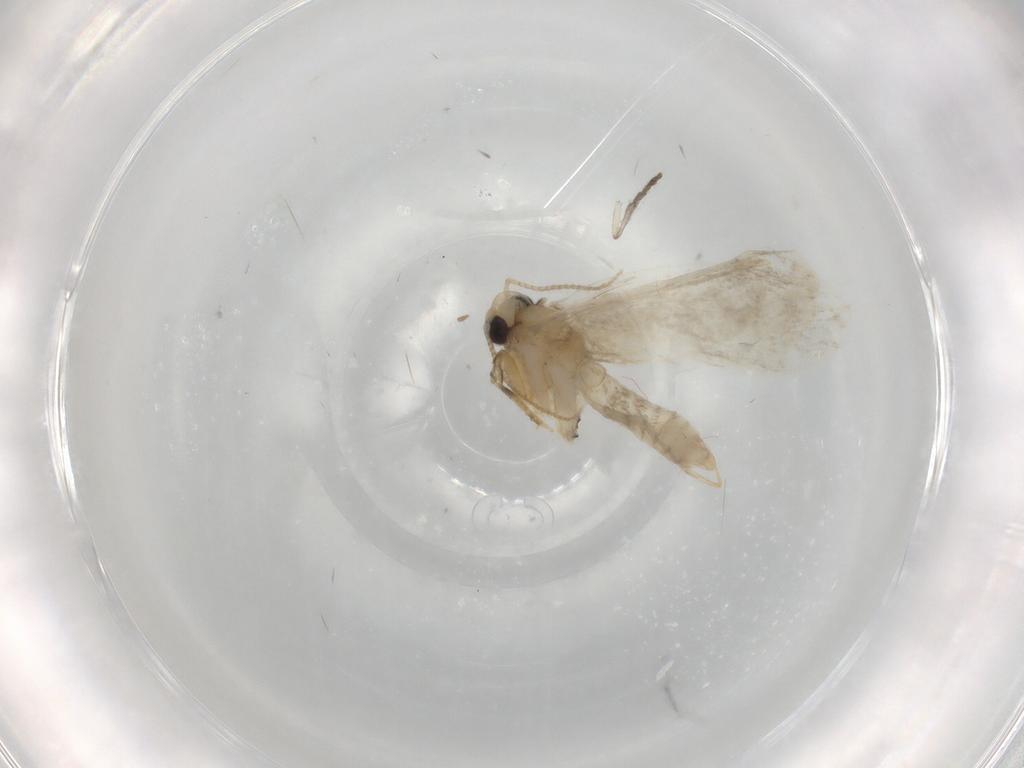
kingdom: Animalia
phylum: Arthropoda
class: Insecta
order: Lepidoptera
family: Psychidae
